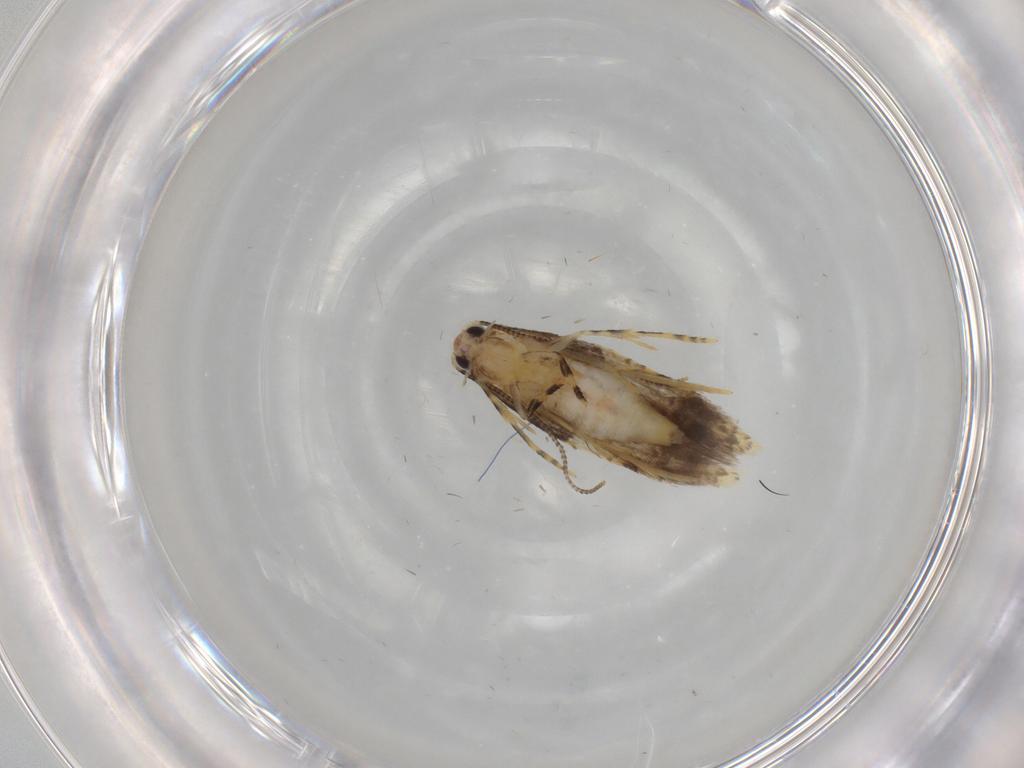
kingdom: Animalia
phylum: Arthropoda
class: Insecta
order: Lepidoptera
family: Tineidae
